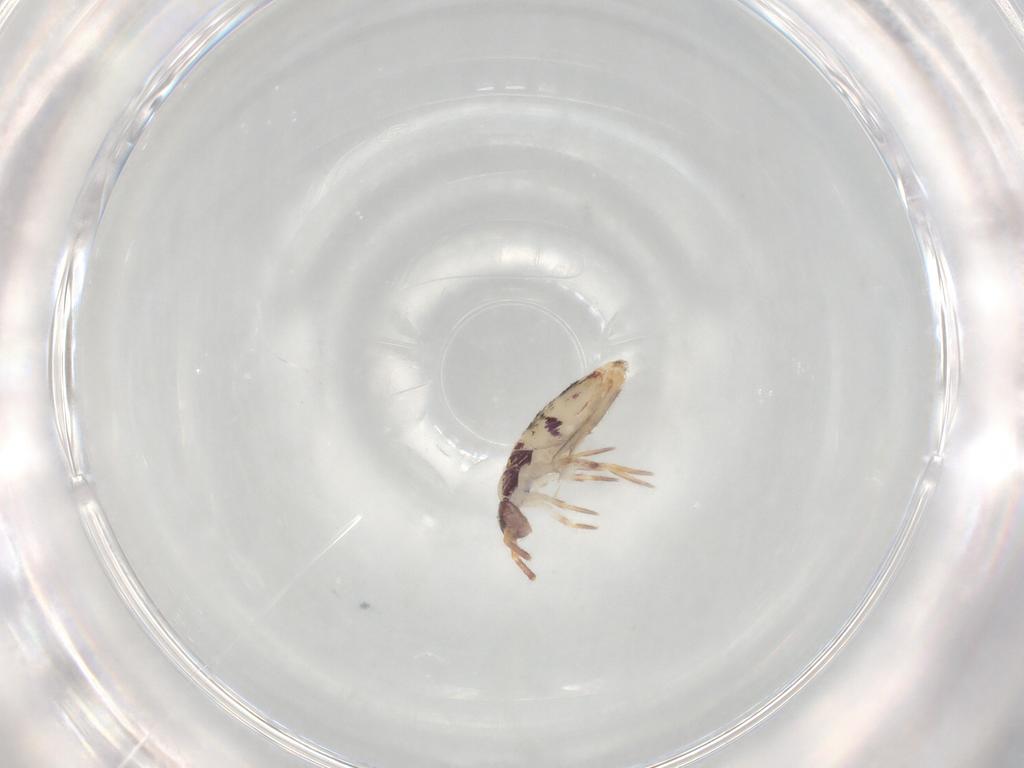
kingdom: Animalia
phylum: Arthropoda
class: Collembola
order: Entomobryomorpha
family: Entomobryidae
